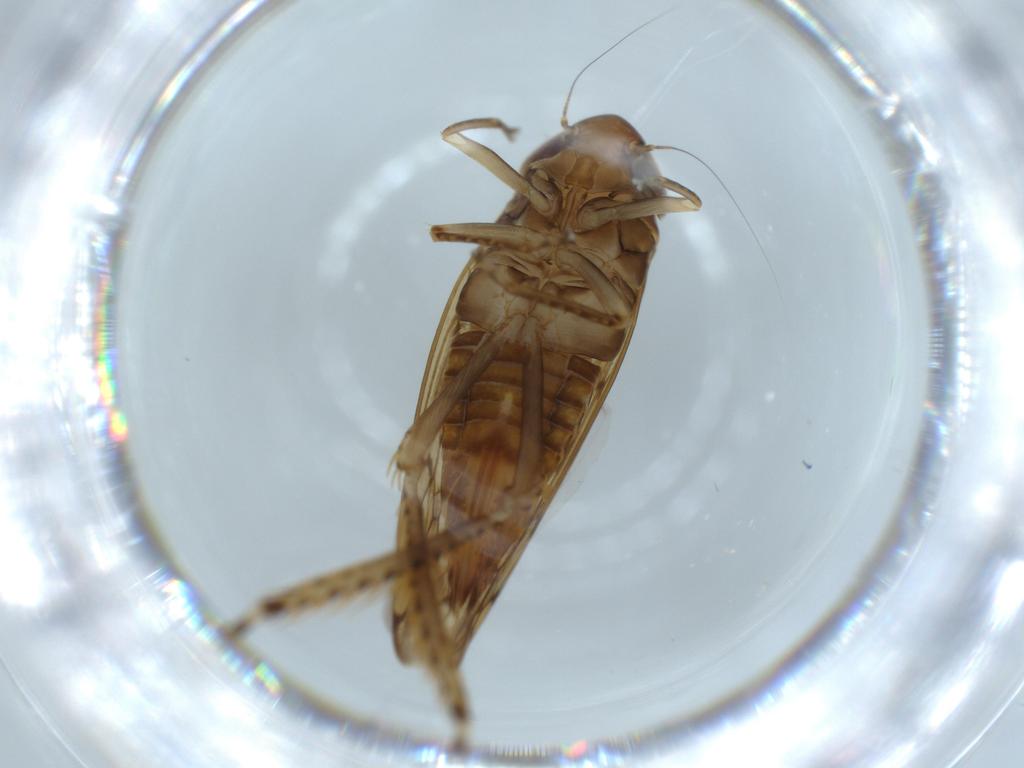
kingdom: Animalia
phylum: Arthropoda
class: Insecta
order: Hemiptera
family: Cicadellidae
